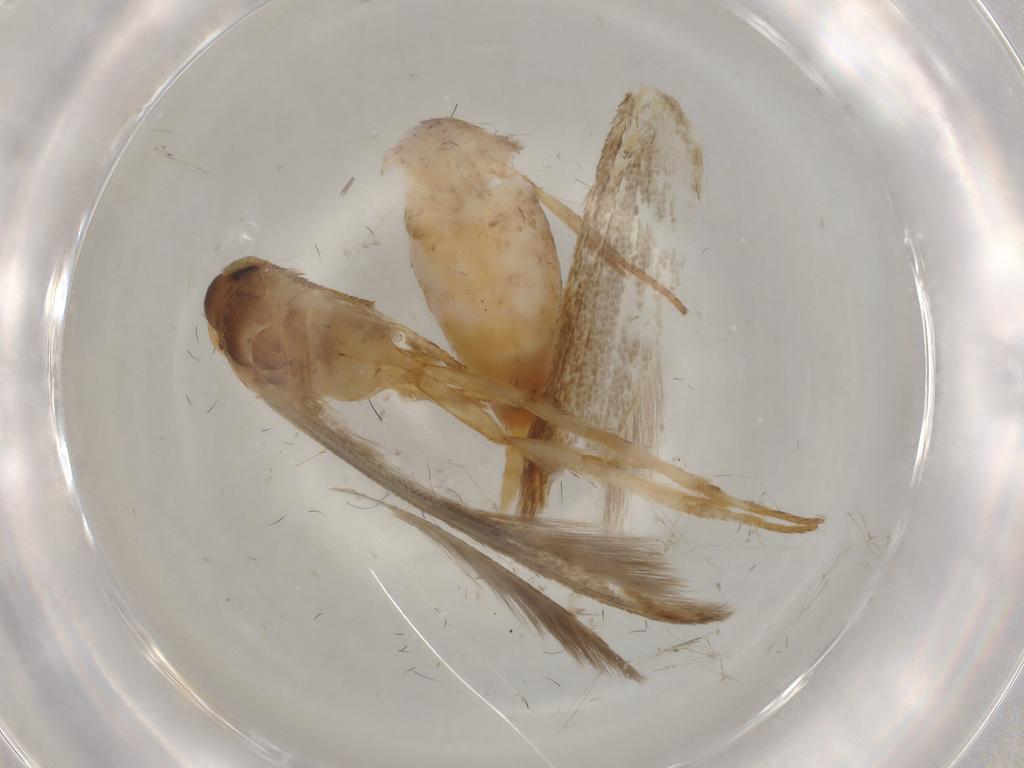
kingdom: Animalia
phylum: Arthropoda
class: Insecta
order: Lepidoptera
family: Blastobasidae
